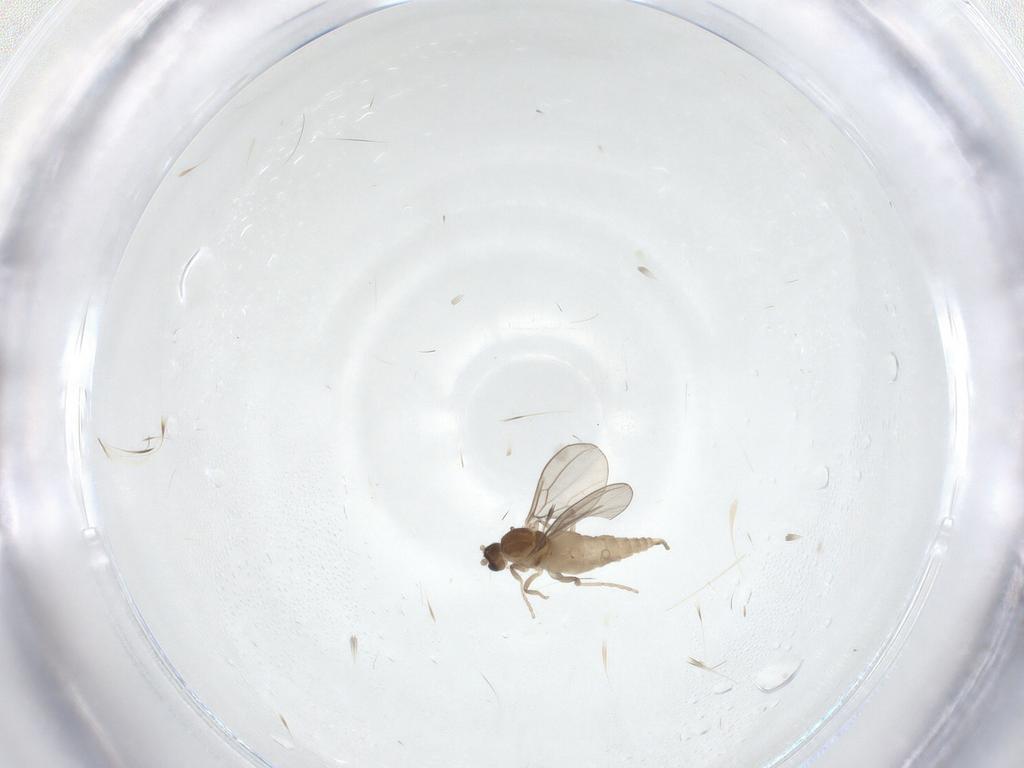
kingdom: Animalia
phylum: Arthropoda
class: Insecta
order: Diptera
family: Cecidomyiidae
